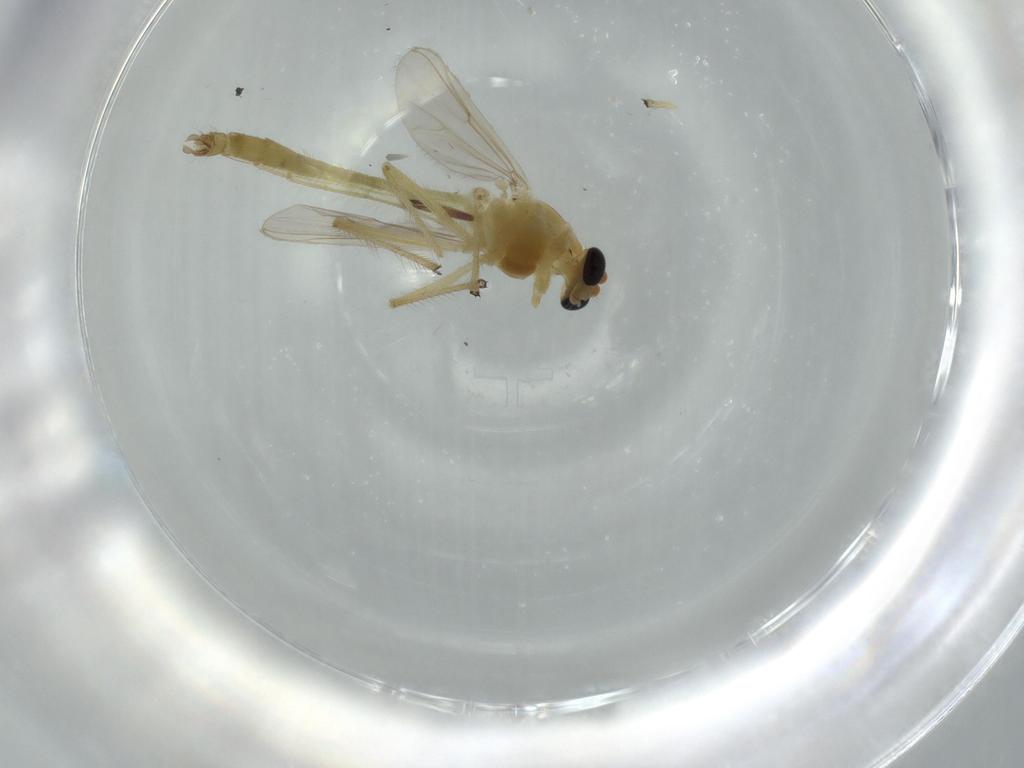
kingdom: Animalia
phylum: Arthropoda
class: Insecta
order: Diptera
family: Chironomidae
